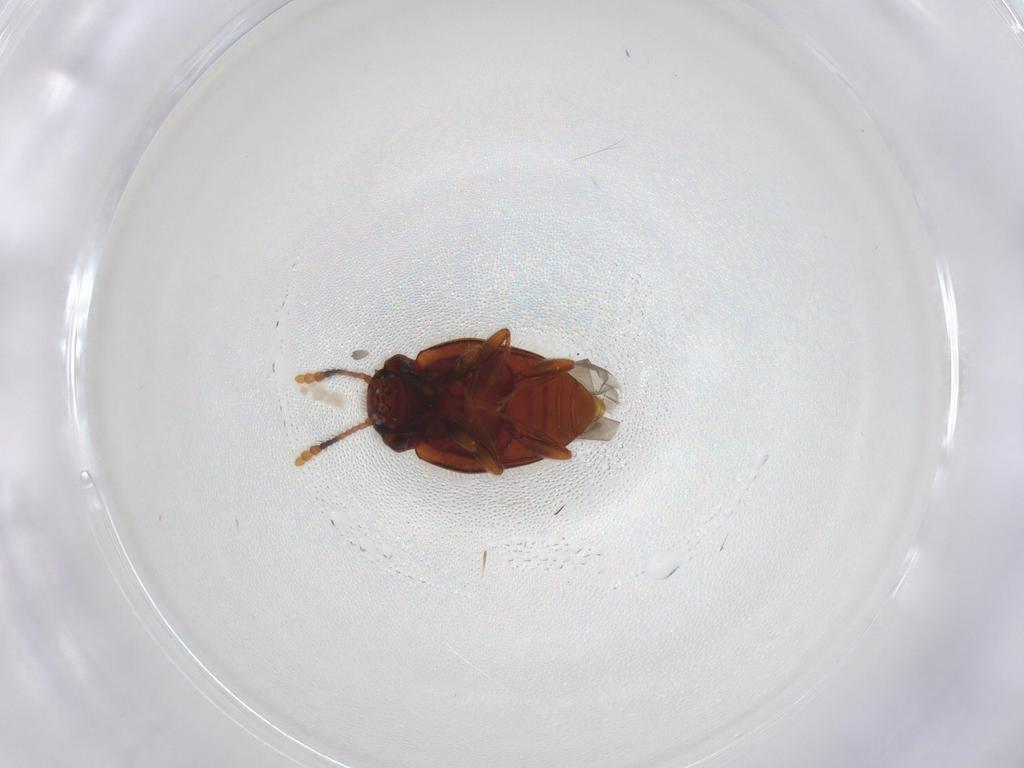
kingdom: Animalia
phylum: Arthropoda
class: Insecta
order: Coleoptera
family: Erotylidae
